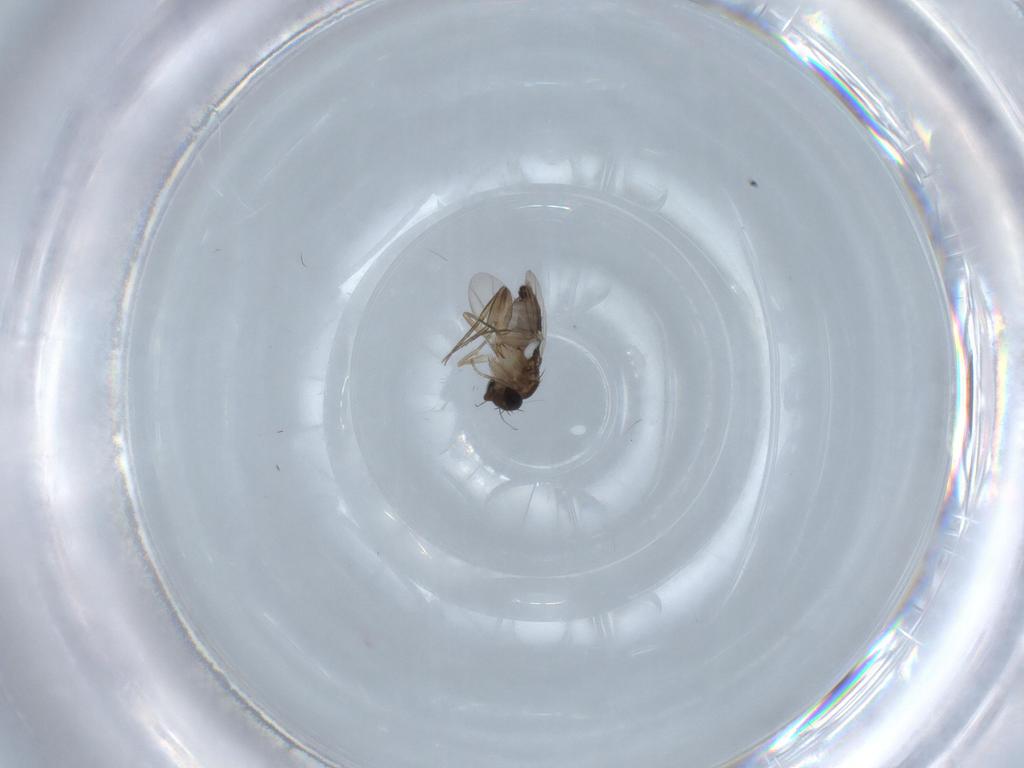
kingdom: Animalia
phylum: Arthropoda
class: Insecta
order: Diptera
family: Phoridae
